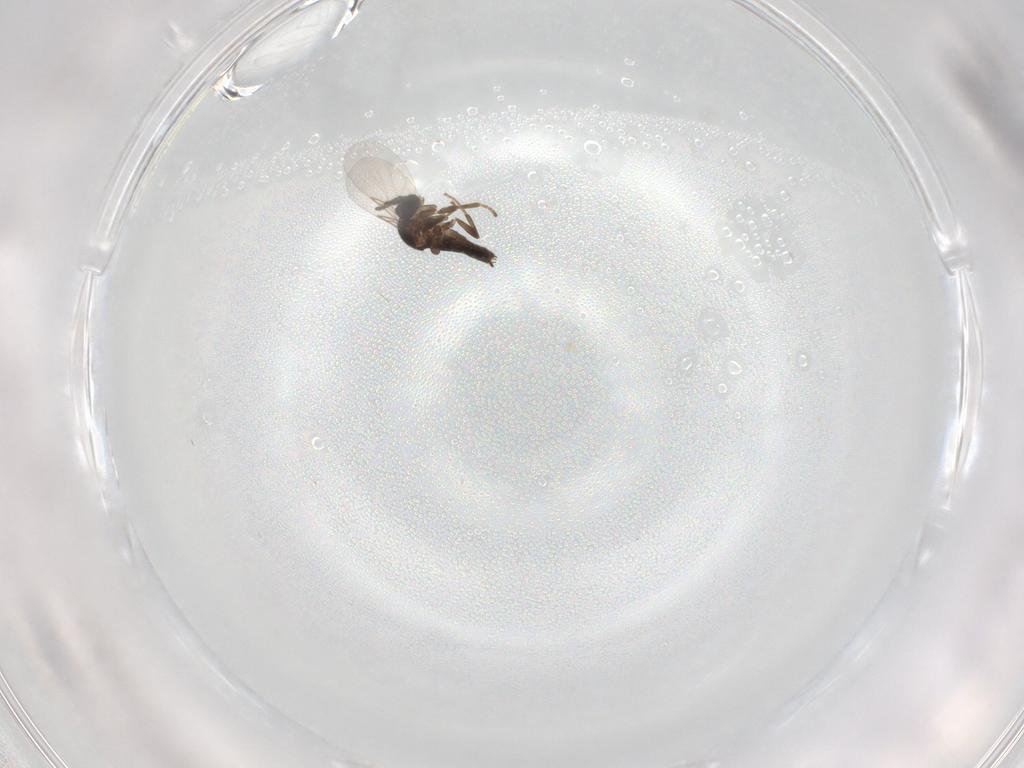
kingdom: Animalia
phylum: Arthropoda
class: Insecta
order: Diptera
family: Scatopsidae
